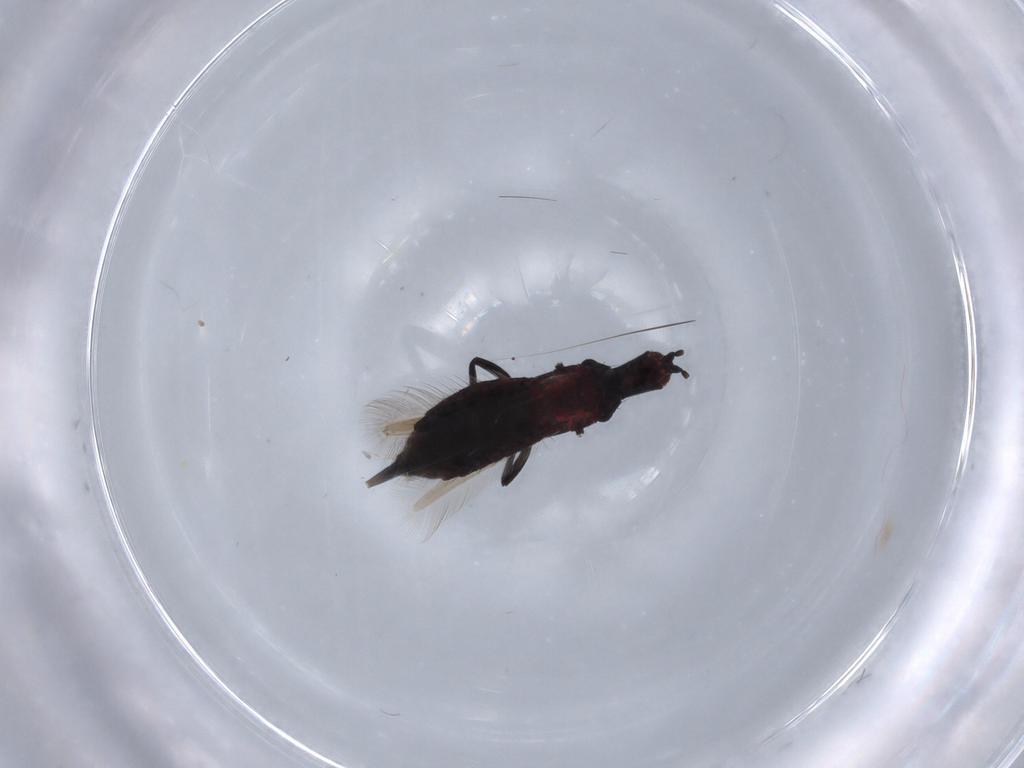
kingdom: Animalia
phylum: Arthropoda
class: Insecta
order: Thysanoptera
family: Phlaeothripidae
